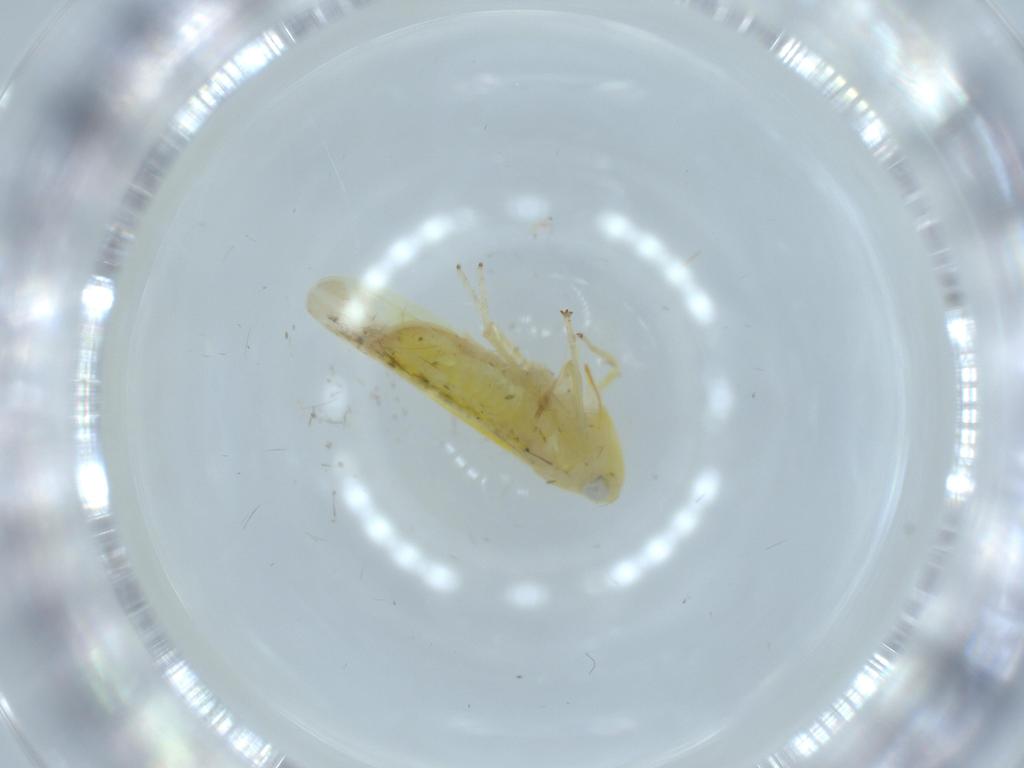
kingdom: Animalia
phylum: Arthropoda
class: Insecta
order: Hemiptera
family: Cicadellidae
